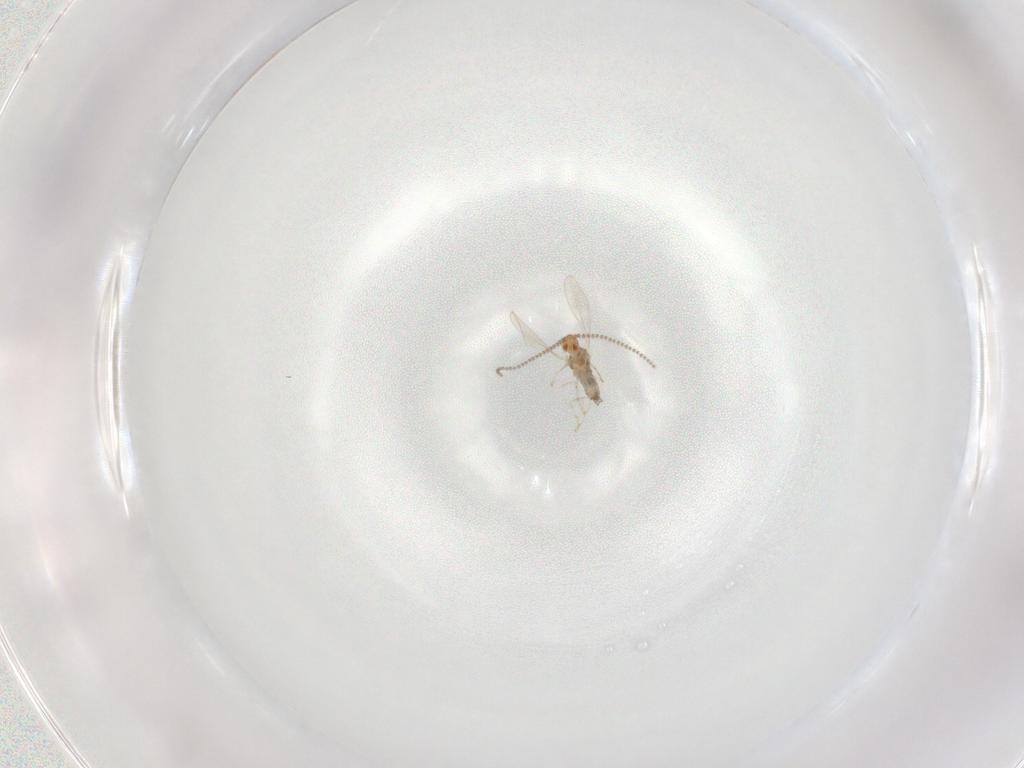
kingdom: Animalia
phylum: Arthropoda
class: Insecta
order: Diptera
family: Cecidomyiidae
